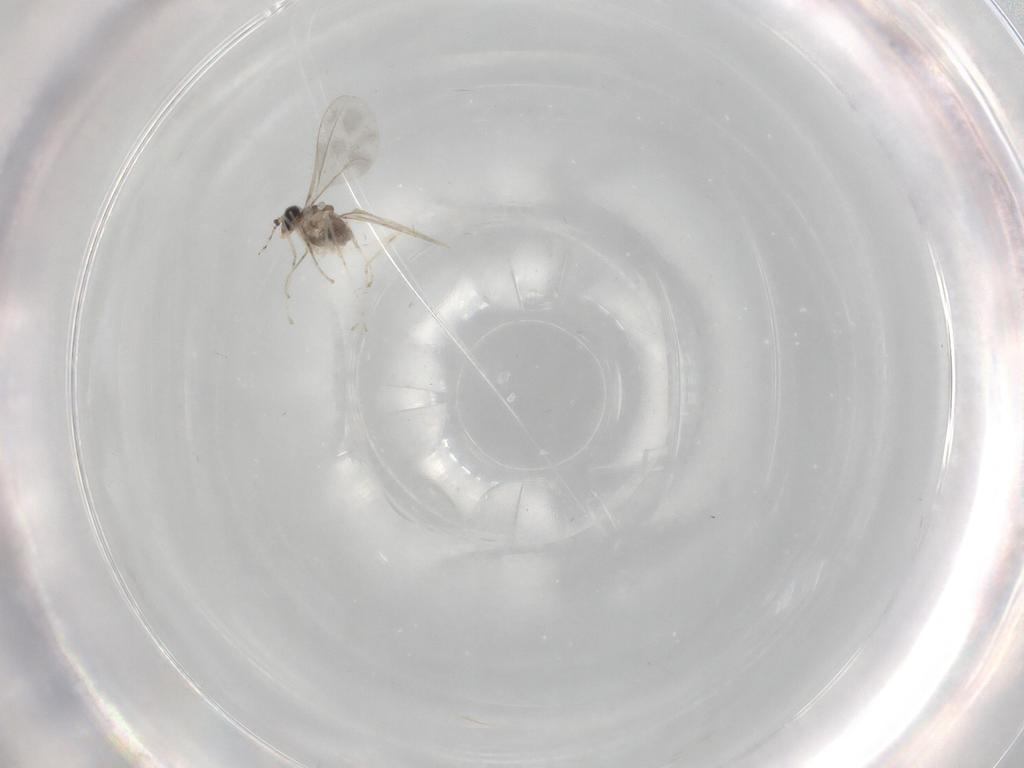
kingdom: Animalia
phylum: Arthropoda
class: Insecta
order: Diptera
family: Cecidomyiidae
